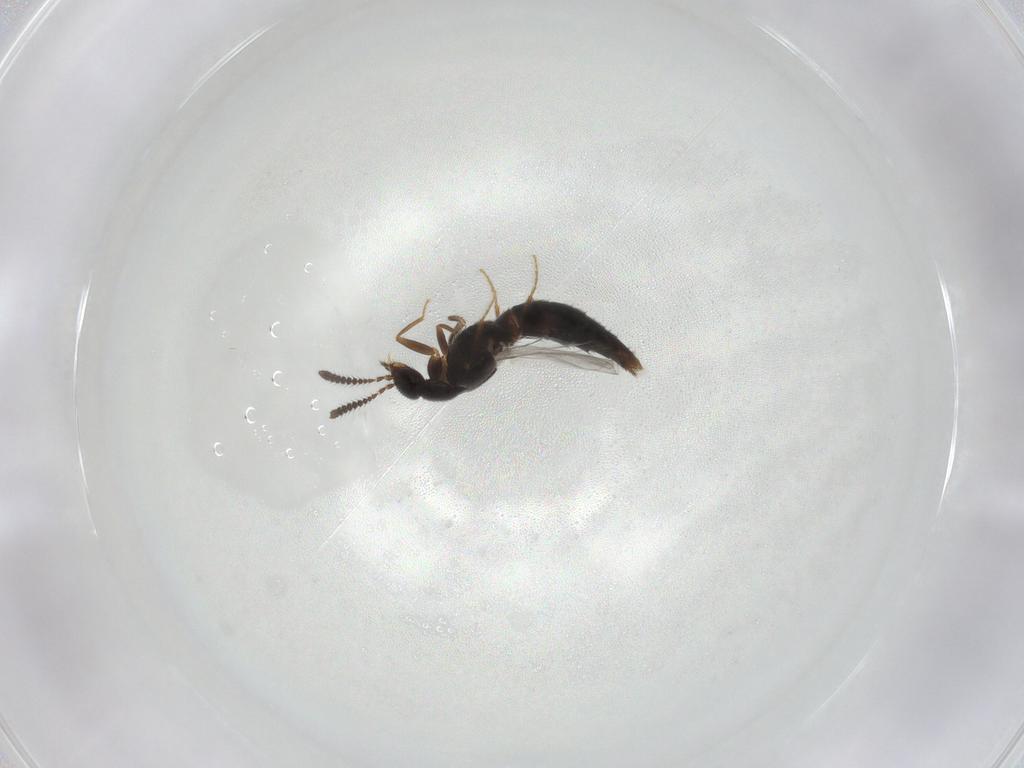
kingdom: Animalia
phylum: Arthropoda
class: Insecta
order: Coleoptera
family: Staphylinidae
